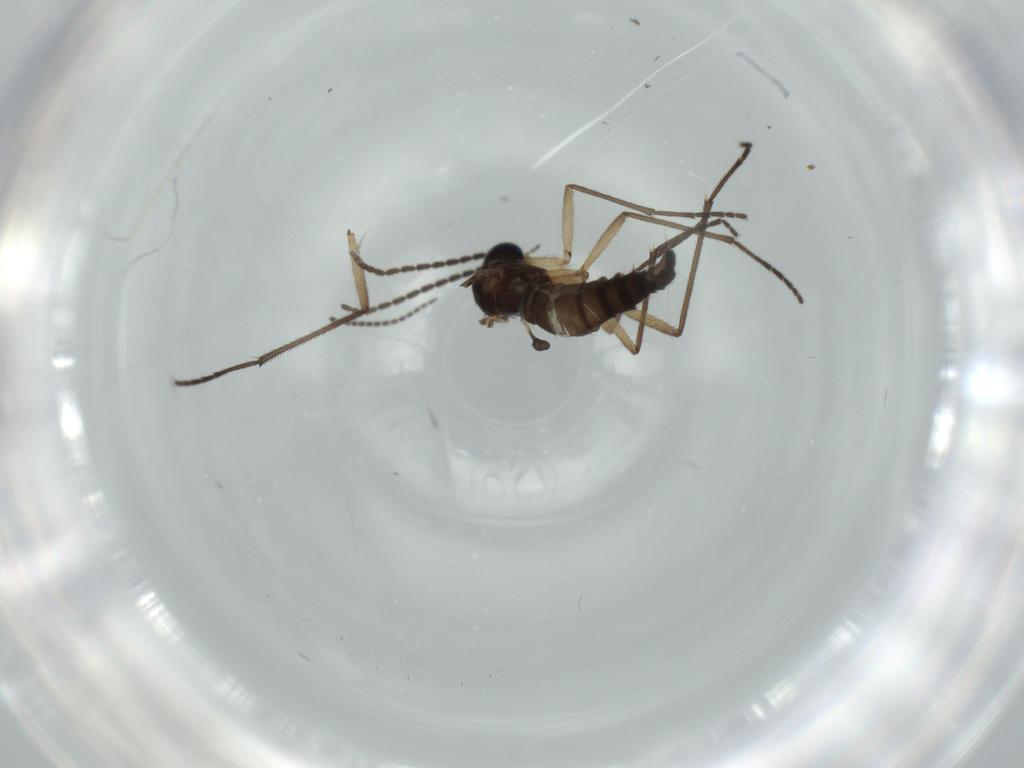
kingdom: Animalia
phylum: Arthropoda
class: Insecta
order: Diptera
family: Sciaridae
